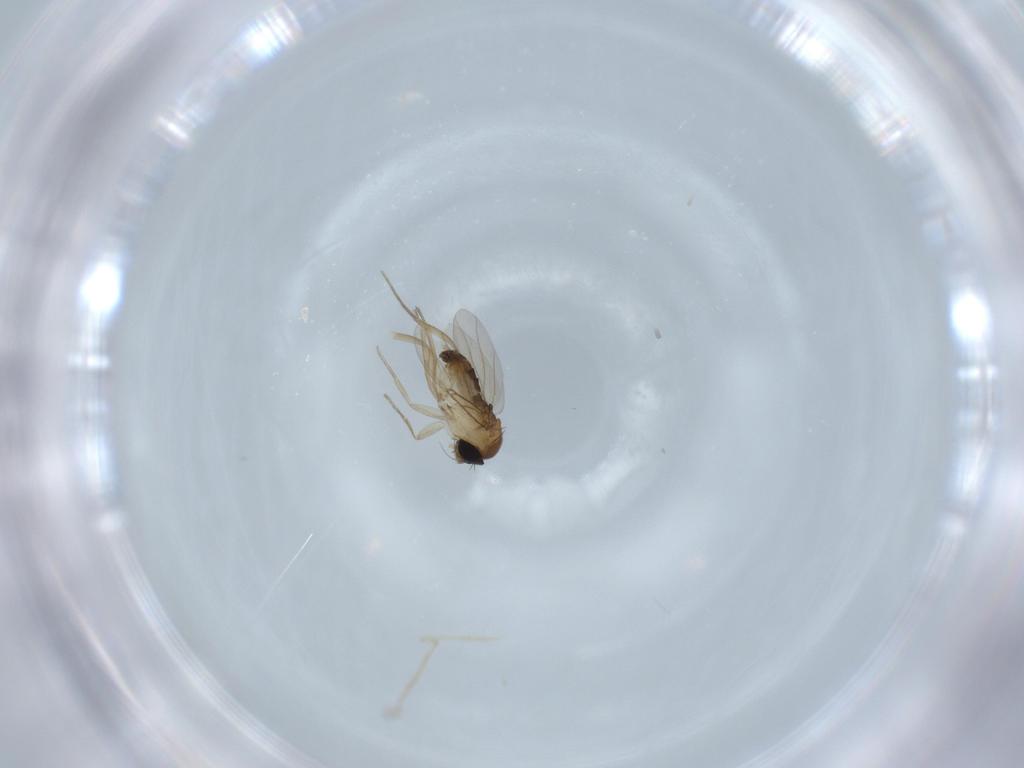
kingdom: Animalia
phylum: Arthropoda
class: Insecta
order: Diptera
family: Phoridae
